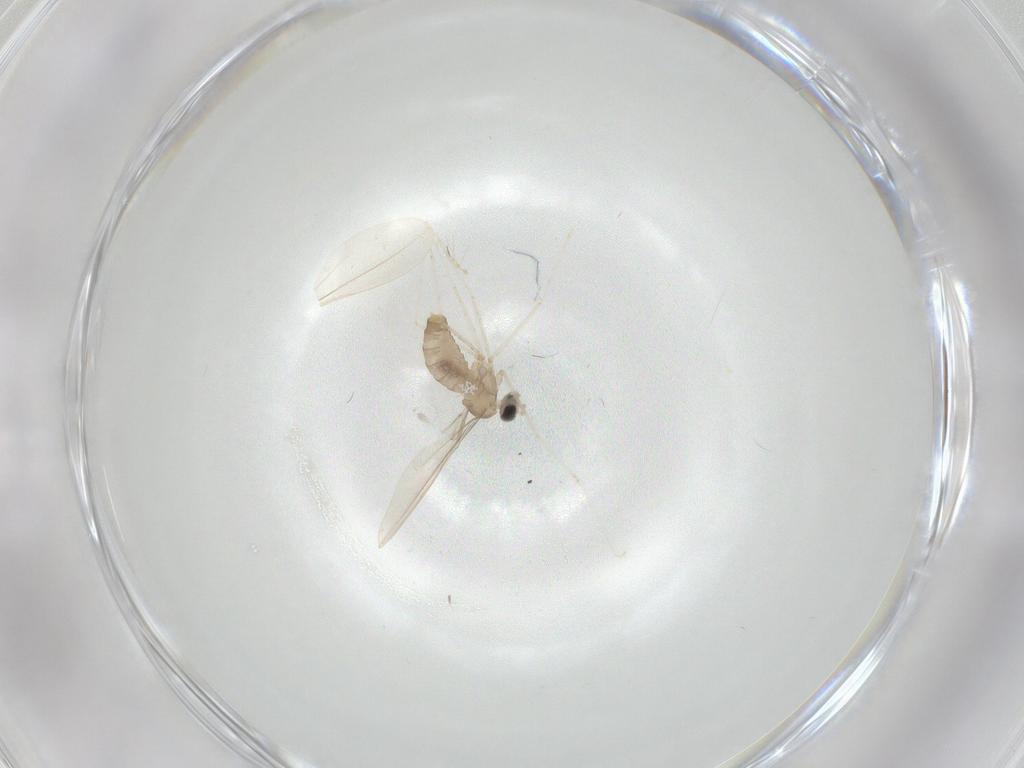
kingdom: Animalia
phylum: Arthropoda
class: Insecta
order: Diptera
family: Cecidomyiidae
